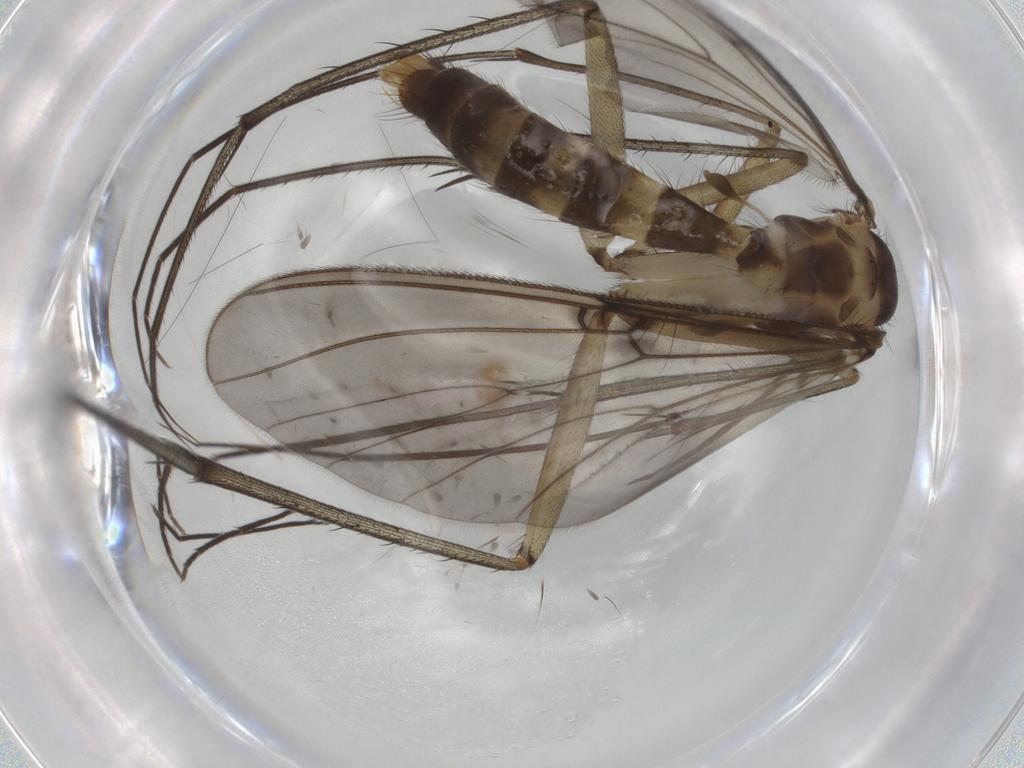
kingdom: Animalia
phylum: Arthropoda
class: Insecta
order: Diptera
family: Mycetophilidae
